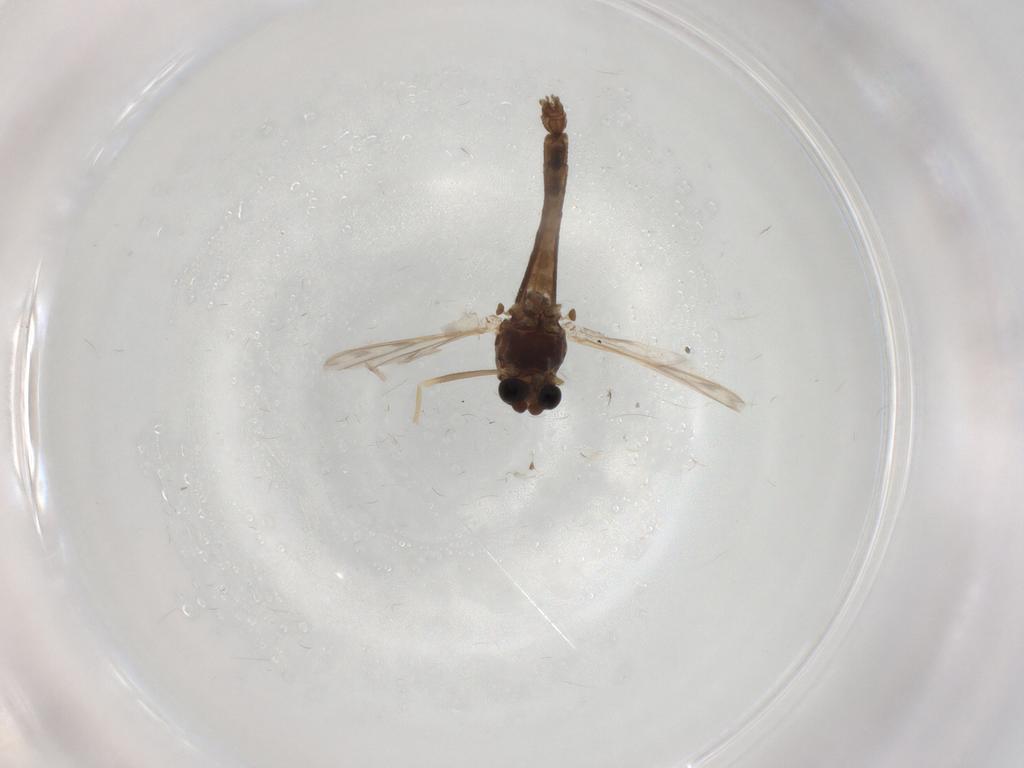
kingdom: Animalia
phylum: Arthropoda
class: Insecta
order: Diptera
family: Chironomidae
